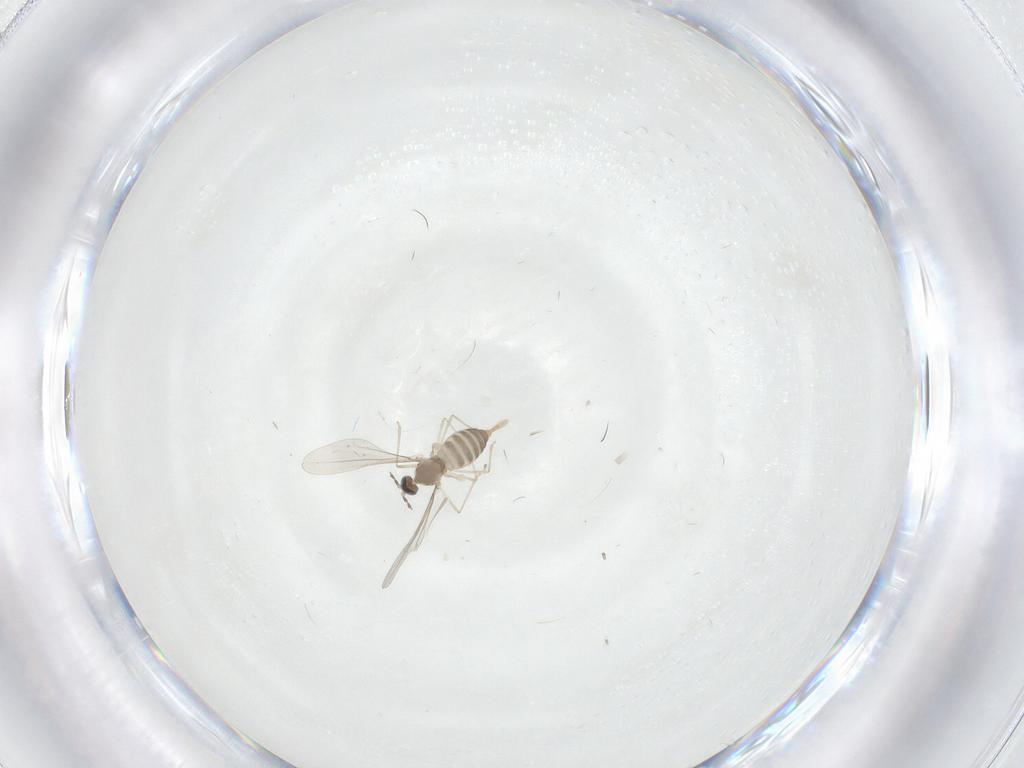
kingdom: Animalia
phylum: Arthropoda
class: Insecta
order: Diptera
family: Cecidomyiidae
